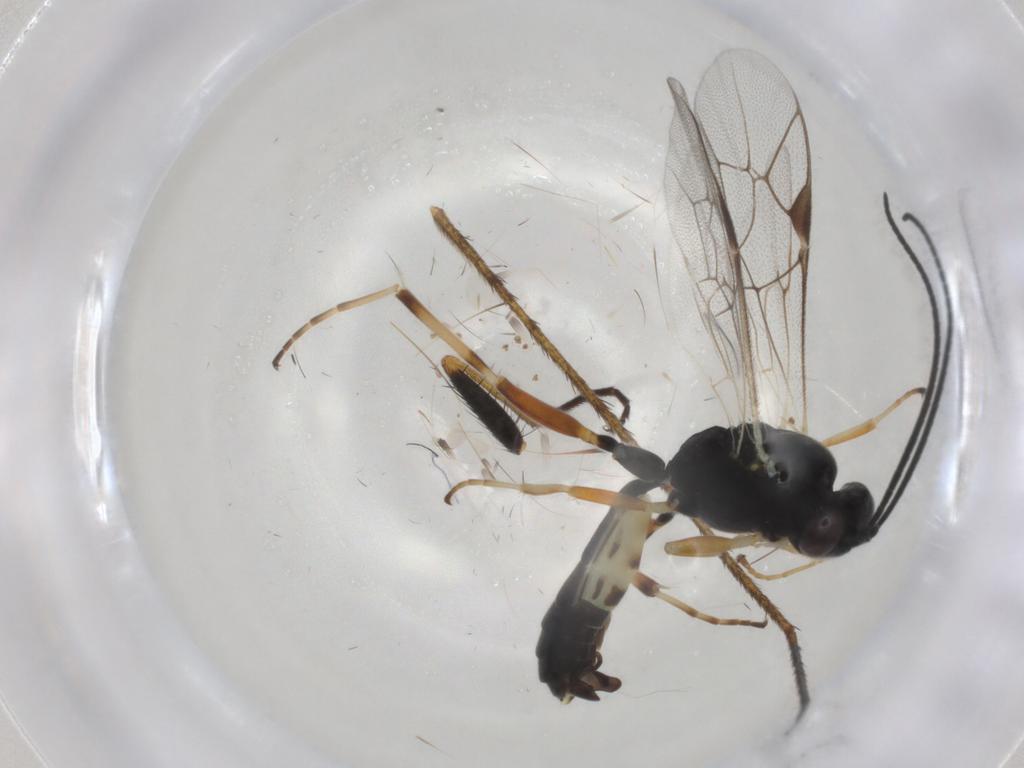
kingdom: Animalia
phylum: Arthropoda
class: Insecta
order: Hymenoptera
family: Ichneumonidae
